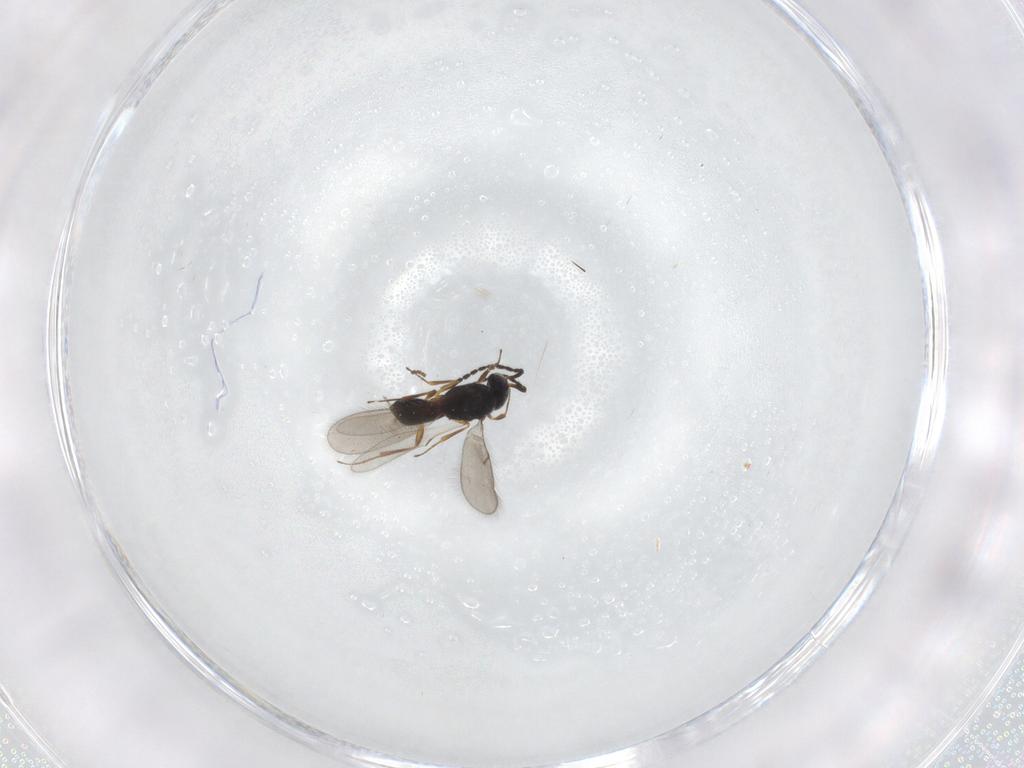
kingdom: Animalia
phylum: Arthropoda
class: Insecta
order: Hymenoptera
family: Scelionidae
